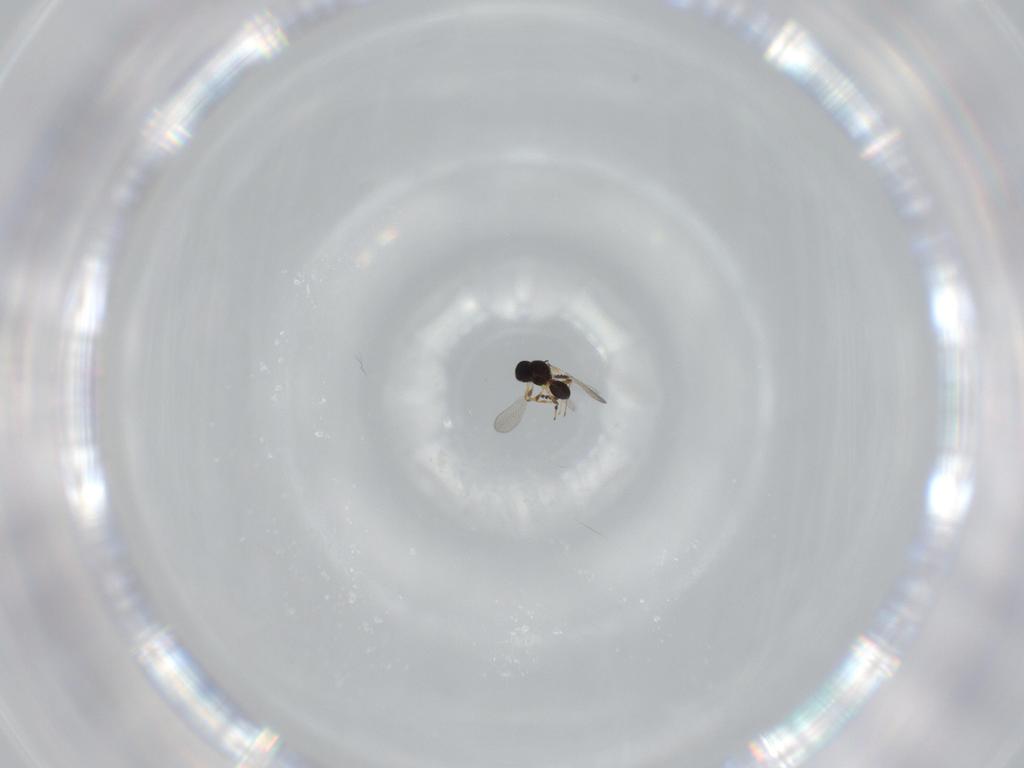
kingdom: Animalia
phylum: Arthropoda
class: Insecta
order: Hymenoptera
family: Platygastridae
